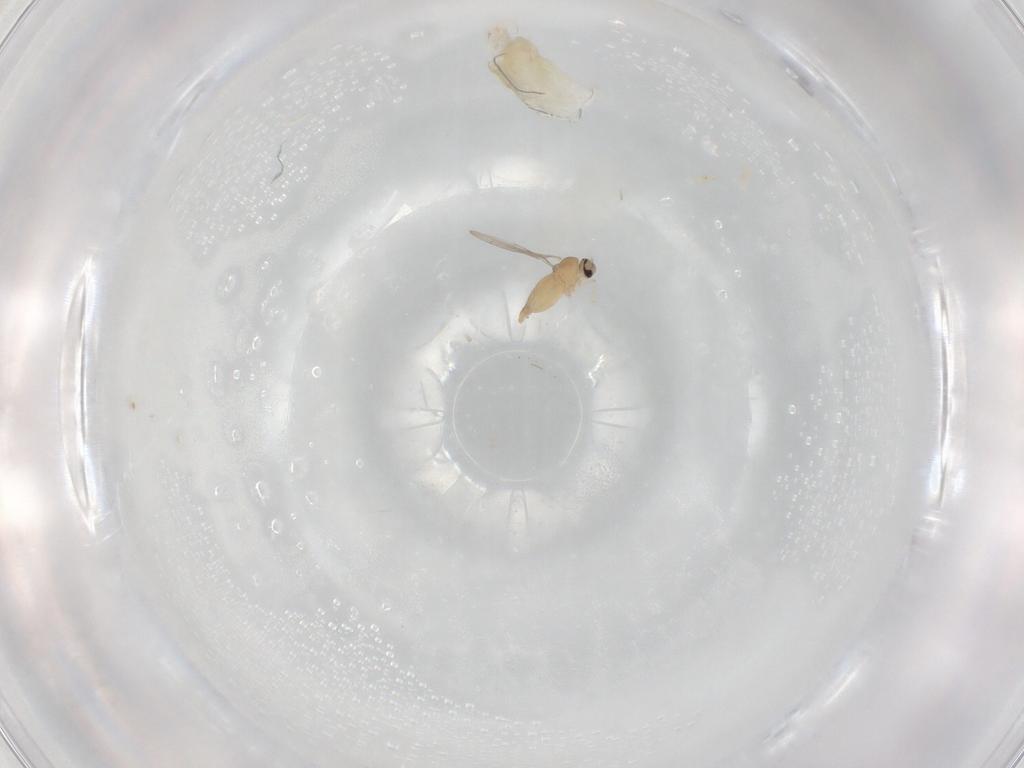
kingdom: Animalia
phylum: Arthropoda
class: Insecta
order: Diptera
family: Cecidomyiidae
